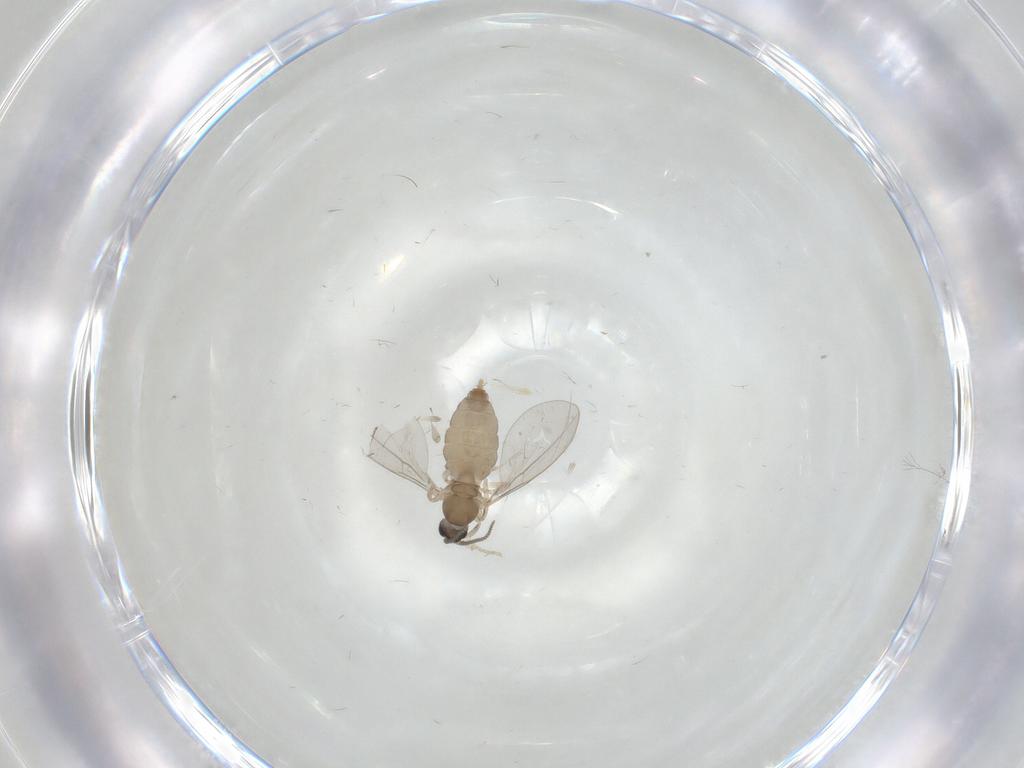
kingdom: Animalia
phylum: Arthropoda
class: Insecta
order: Diptera
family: Cecidomyiidae
